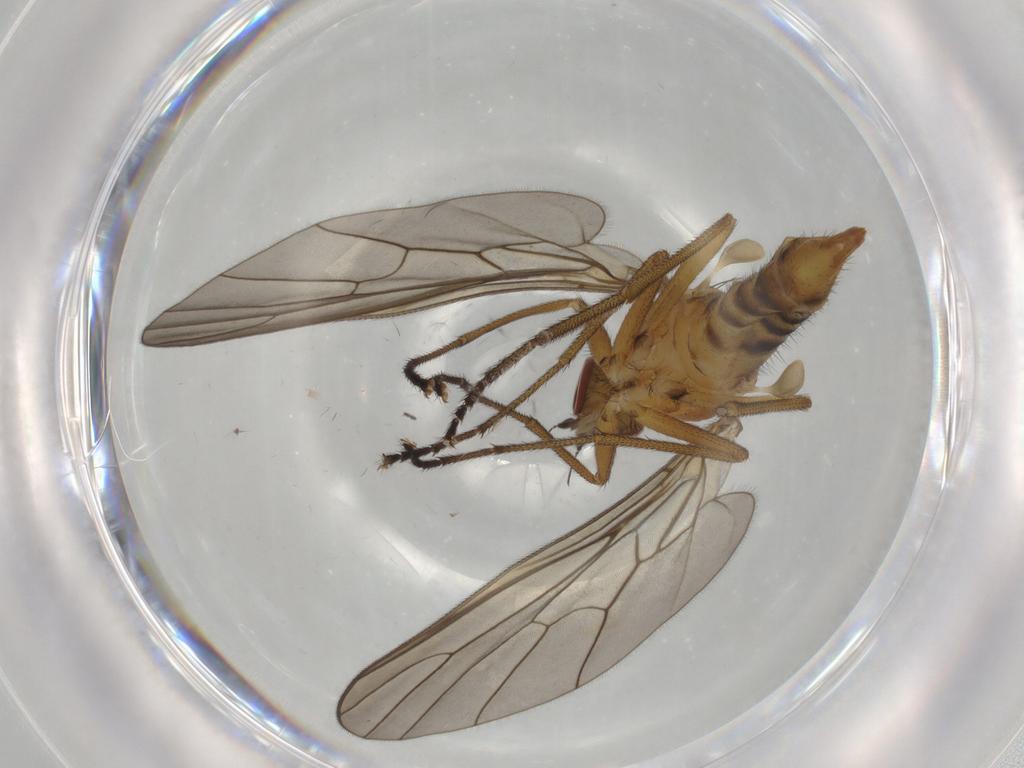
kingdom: Animalia
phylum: Arthropoda
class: Insecta
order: Diptera
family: Brachystomatidae
